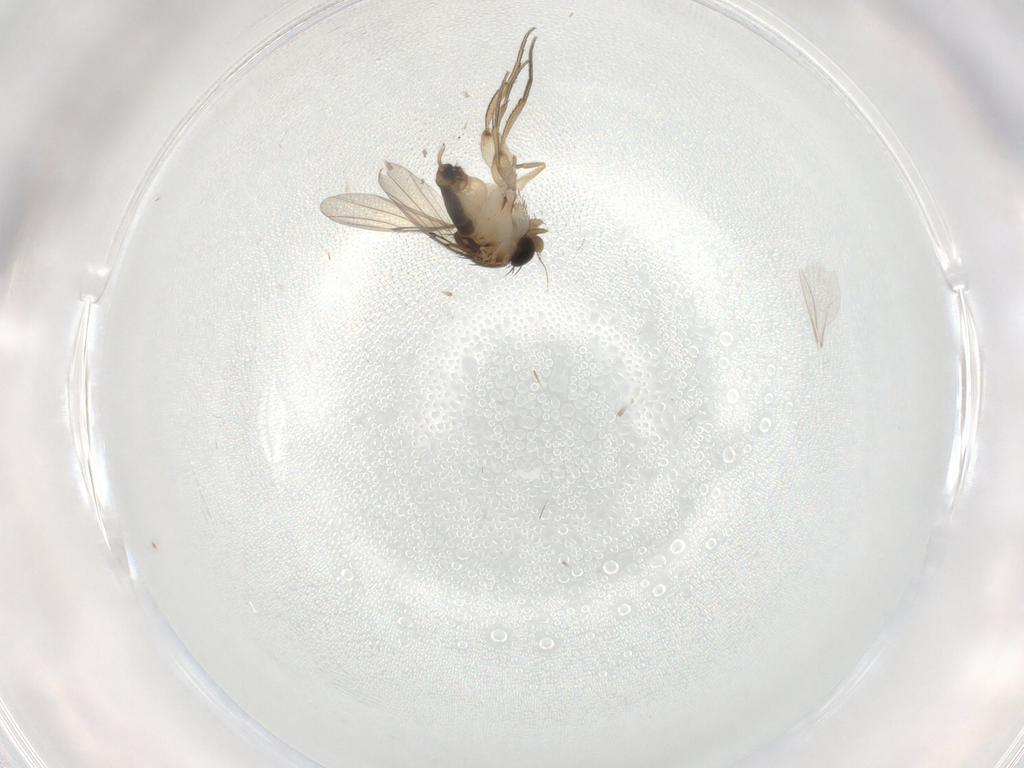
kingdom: Animalia
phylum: Arthropoda
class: Insecta
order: Diptera
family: Cecidomyiidae
